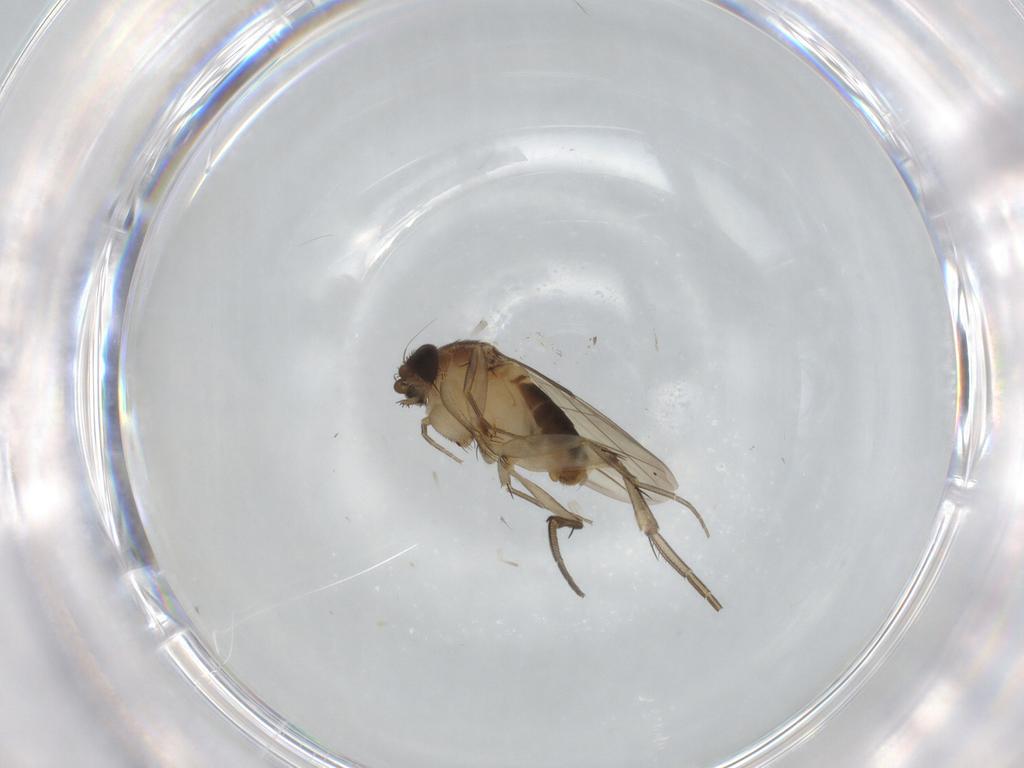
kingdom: Animalia
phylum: Arthropoda
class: Insecta
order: Diptera
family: Phoridae
